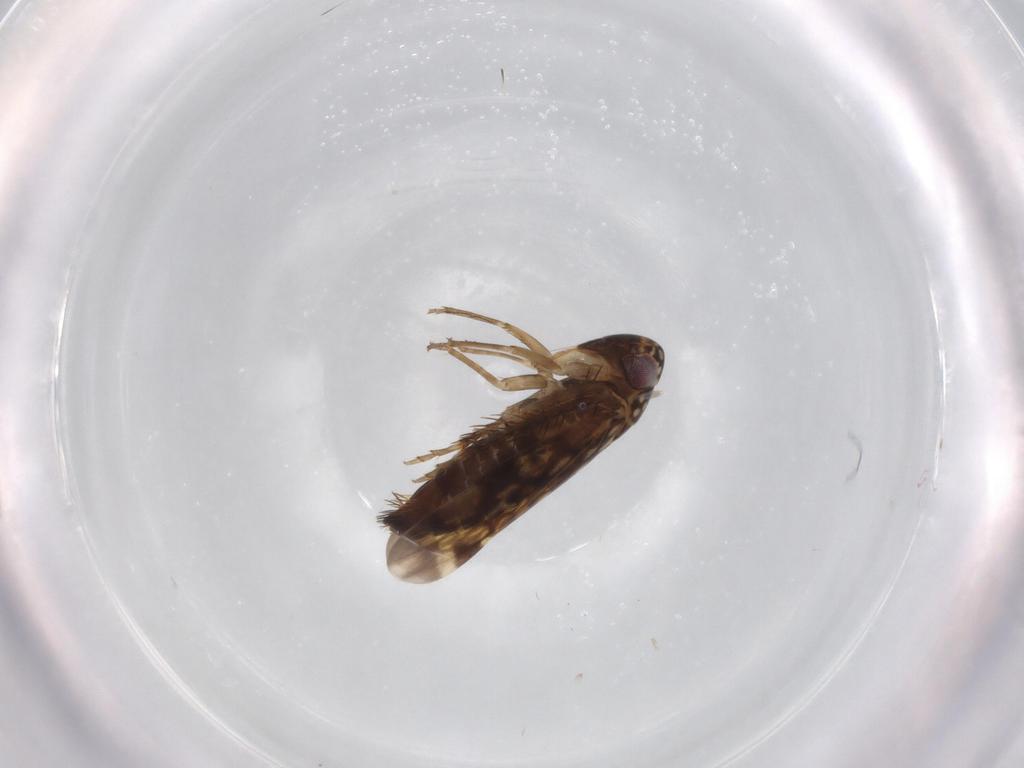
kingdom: Animalia
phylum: Arthropoda
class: Insecta
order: Hemiptera
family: Cicadellidae
